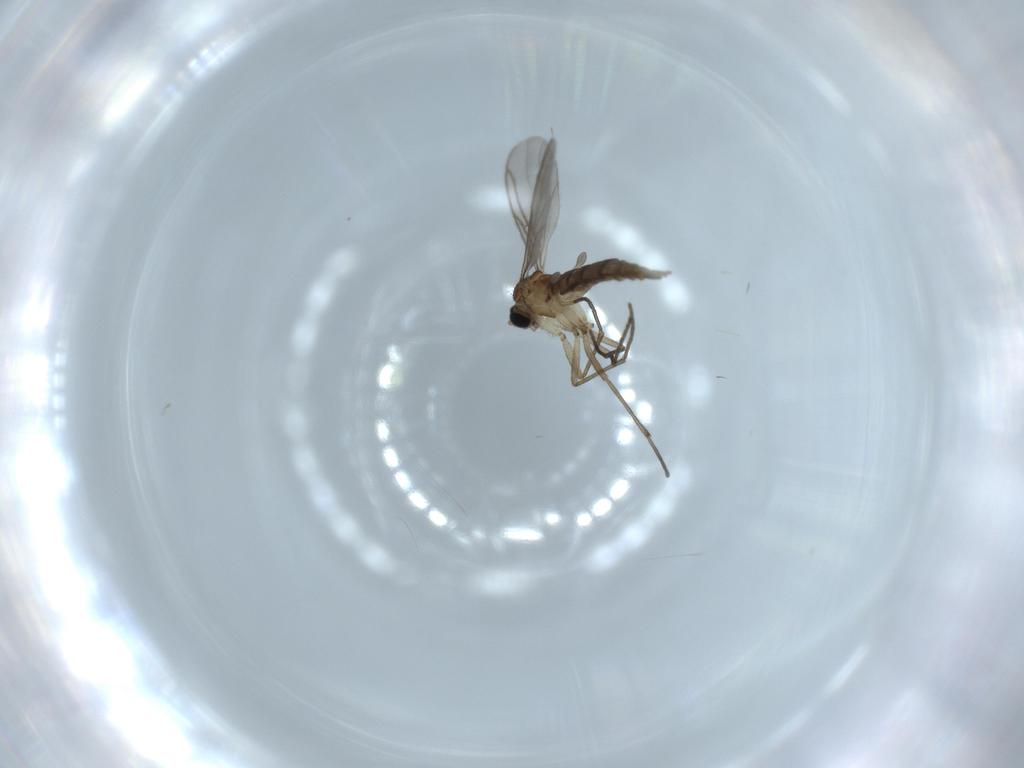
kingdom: Animalia
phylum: Arthropoda
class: Insecta
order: Diptera
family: Sciaridae
